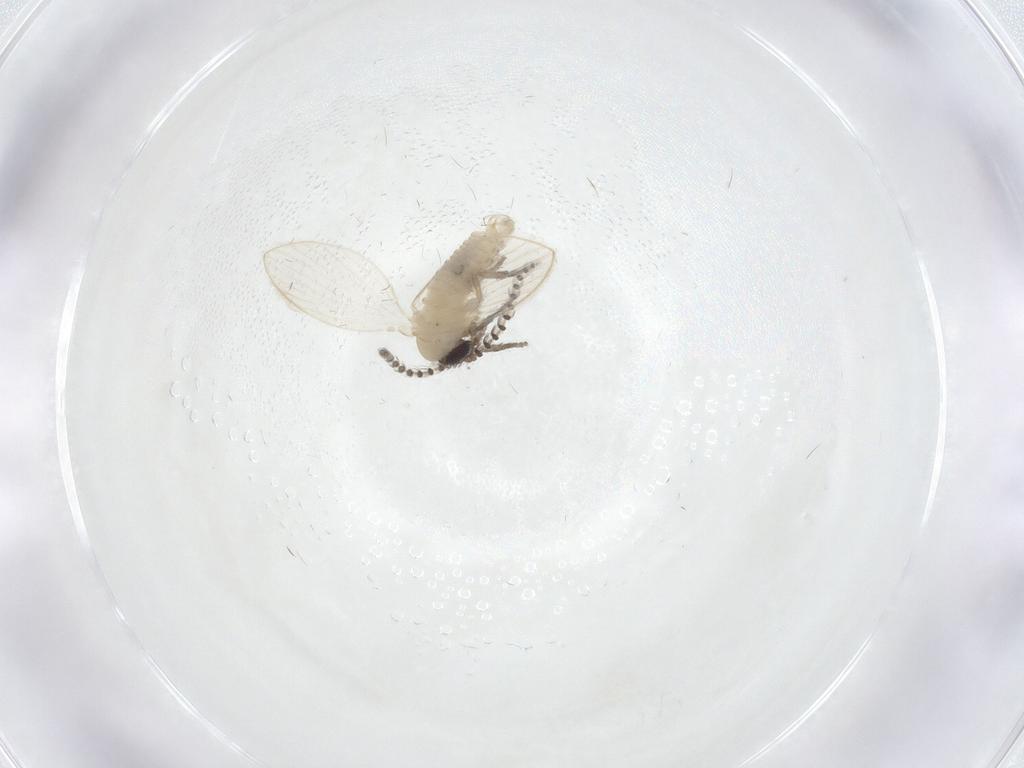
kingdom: Animalia
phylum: Arthropoda
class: Insecta
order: Diptera
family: Psychodidae
